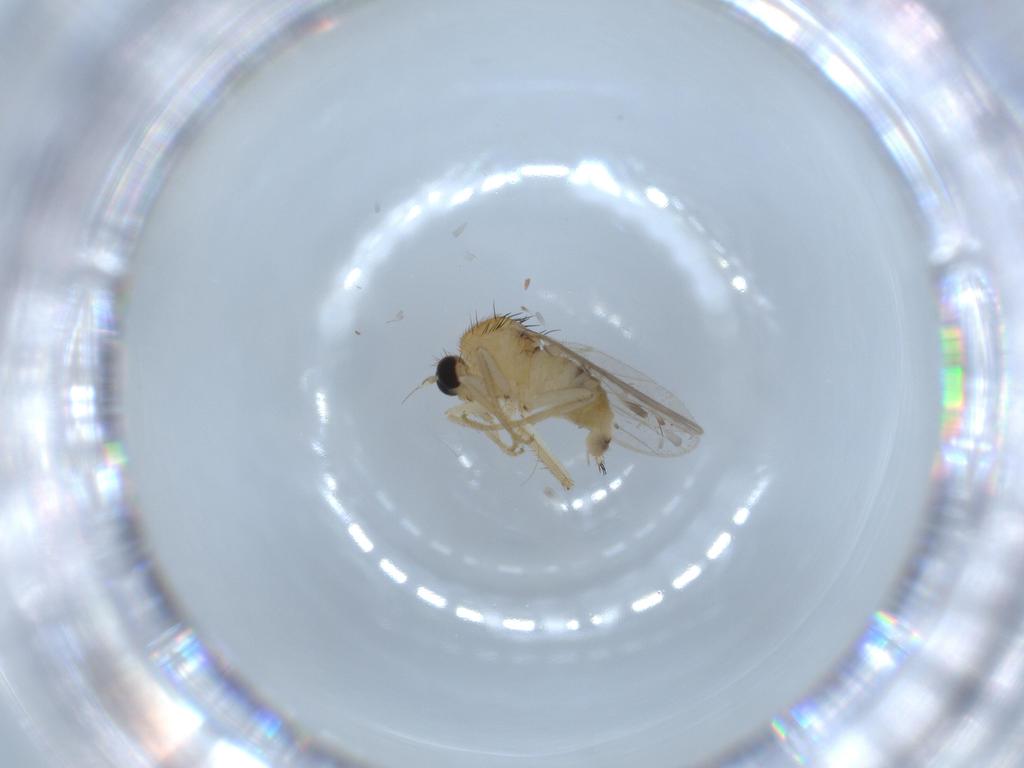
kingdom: Animalia
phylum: Arthropoda
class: Insecta
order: Diptera
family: Hybotidae
